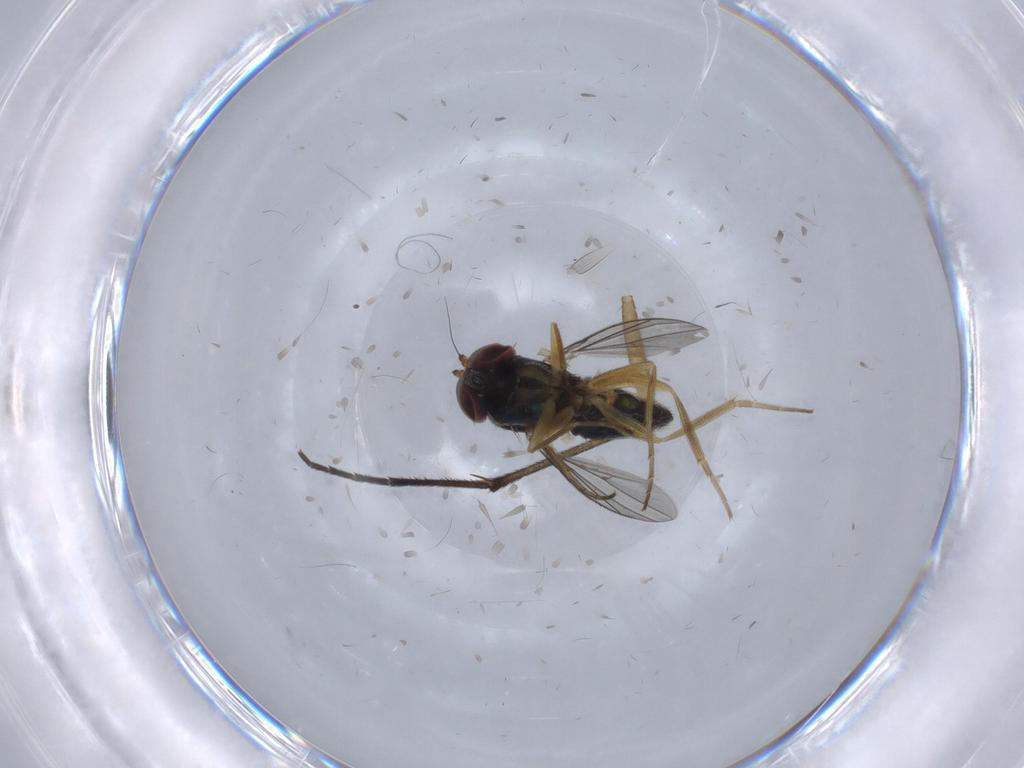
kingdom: Animalia
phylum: Arthropoda
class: Insecta
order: Diptera
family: Sciaridae
